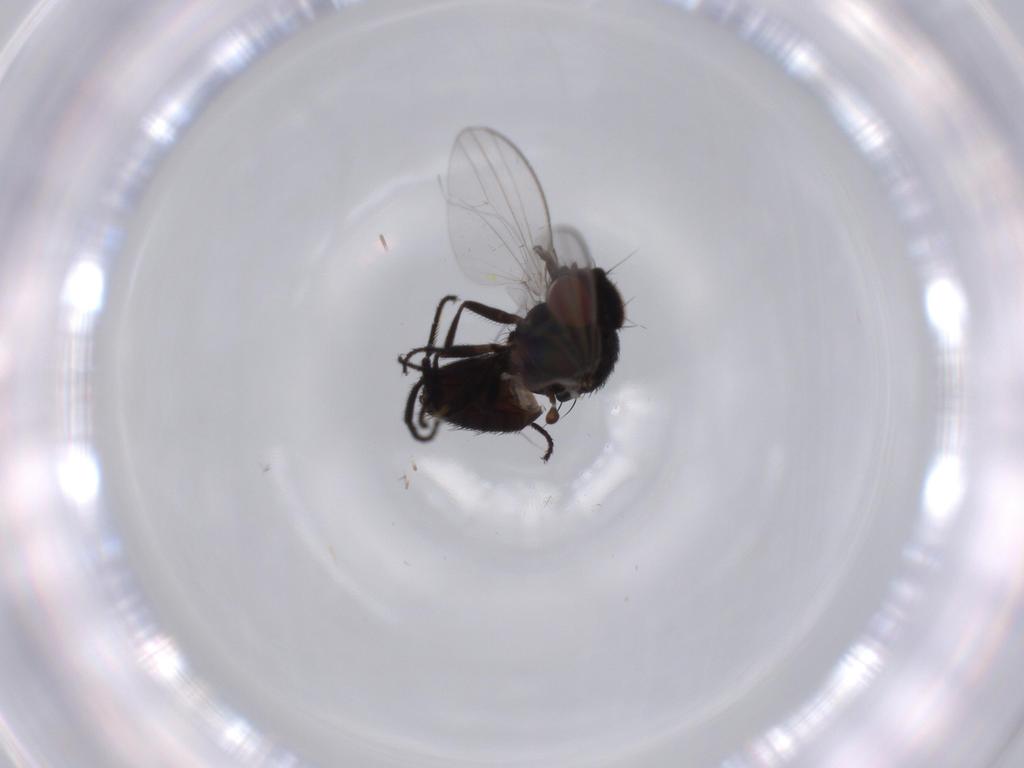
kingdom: Animalia
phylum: Arthropoda
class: Insecta
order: Diptera
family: Milichiidae
